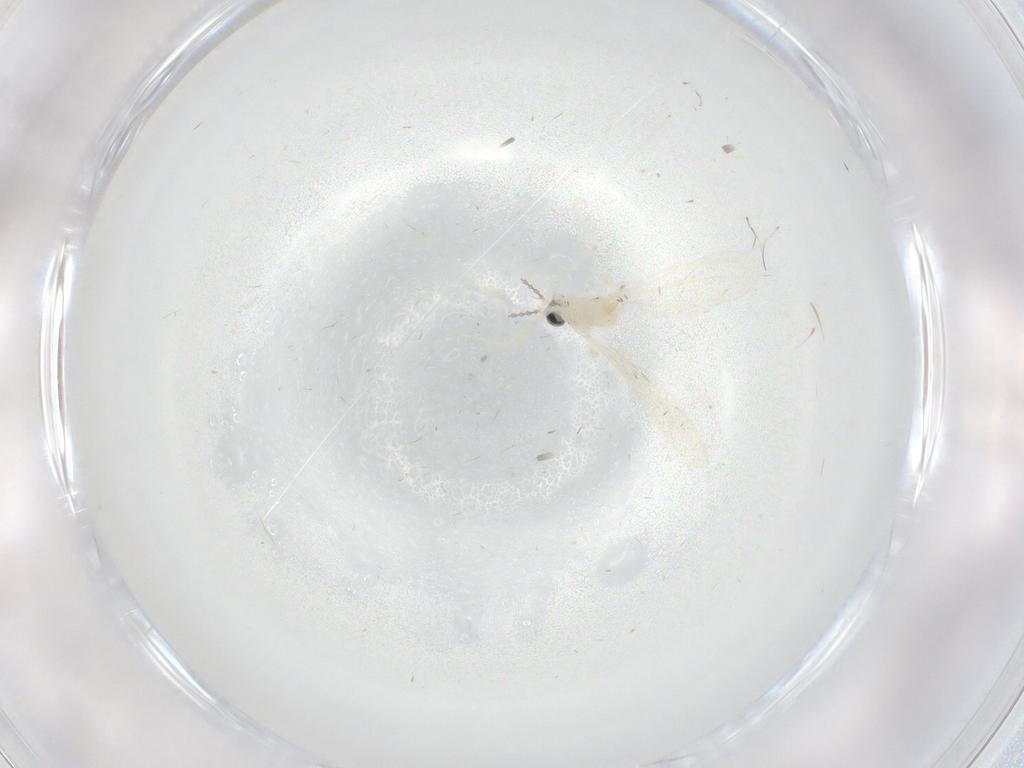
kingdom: Animalia
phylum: Arthropoda
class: Insecta
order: Diptera
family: Cecidomyiidae
